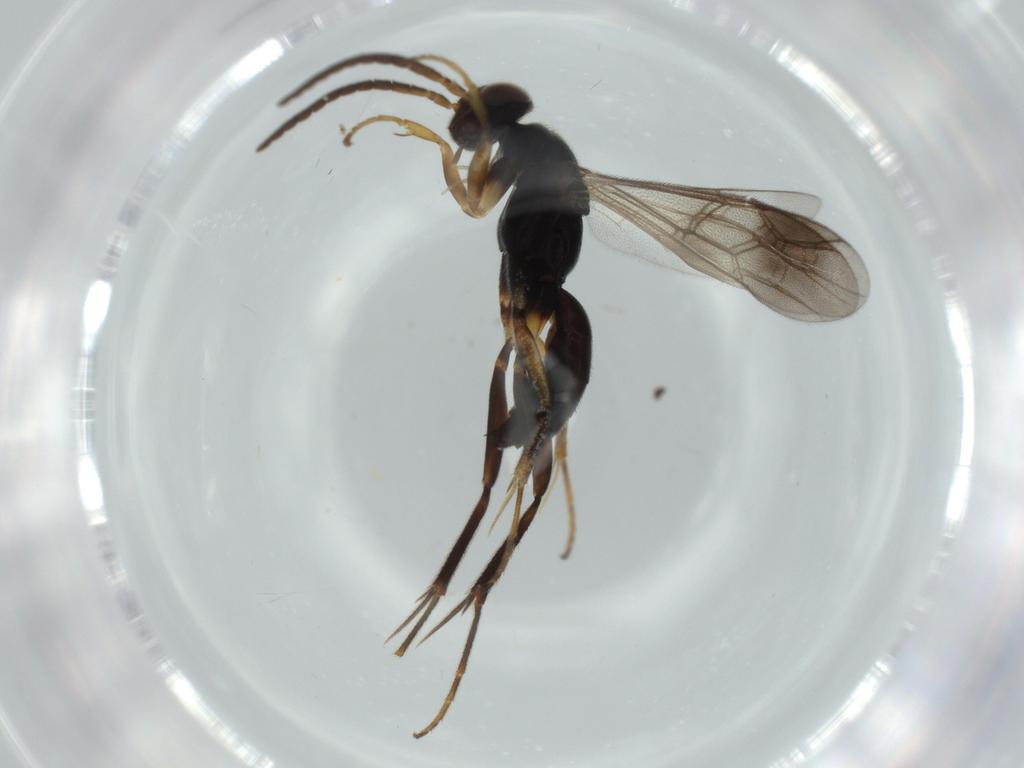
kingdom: Animalia
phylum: Arthropoda
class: Insecta
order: Hymenoptera
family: Pompilidae
